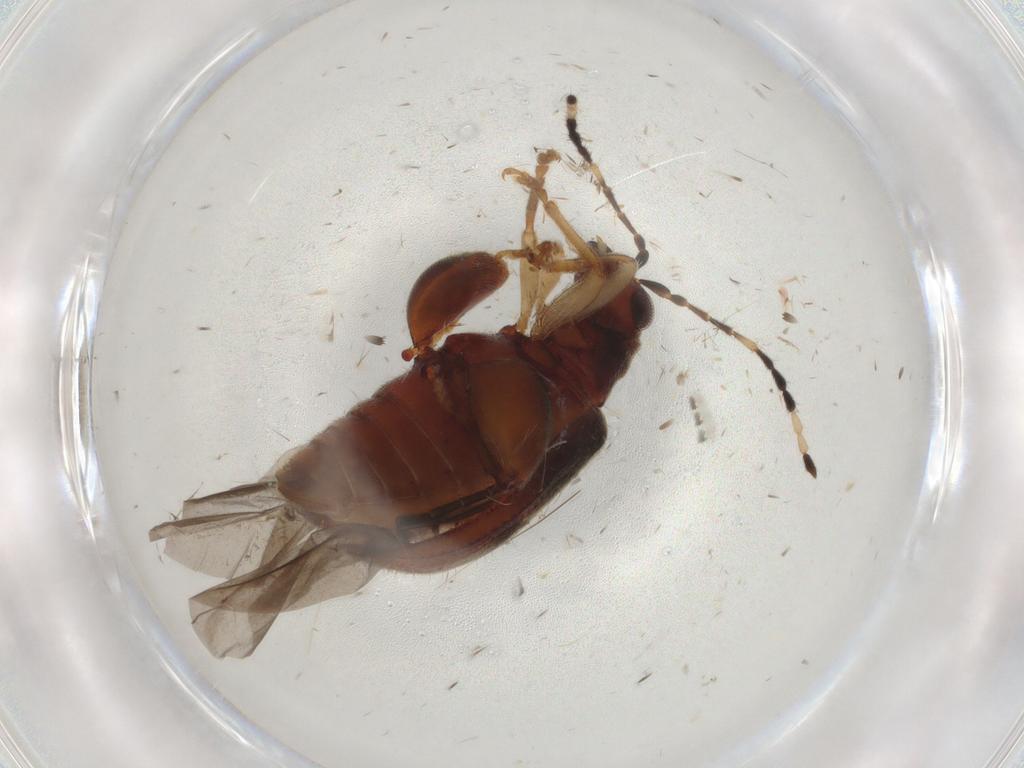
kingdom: Animalia
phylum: Arthropoda
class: Insecta
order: Coleoptera
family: Chrysomelidae
